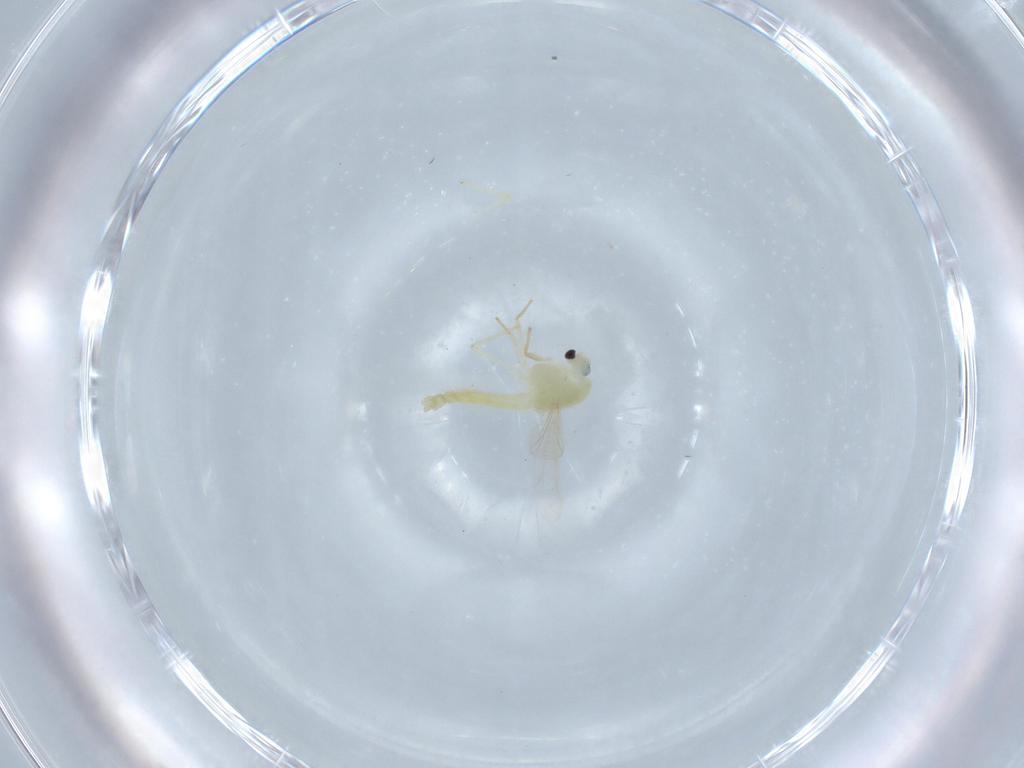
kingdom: Animalia
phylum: Arthropoda
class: Insecta
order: Diptera
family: Chironomidae
